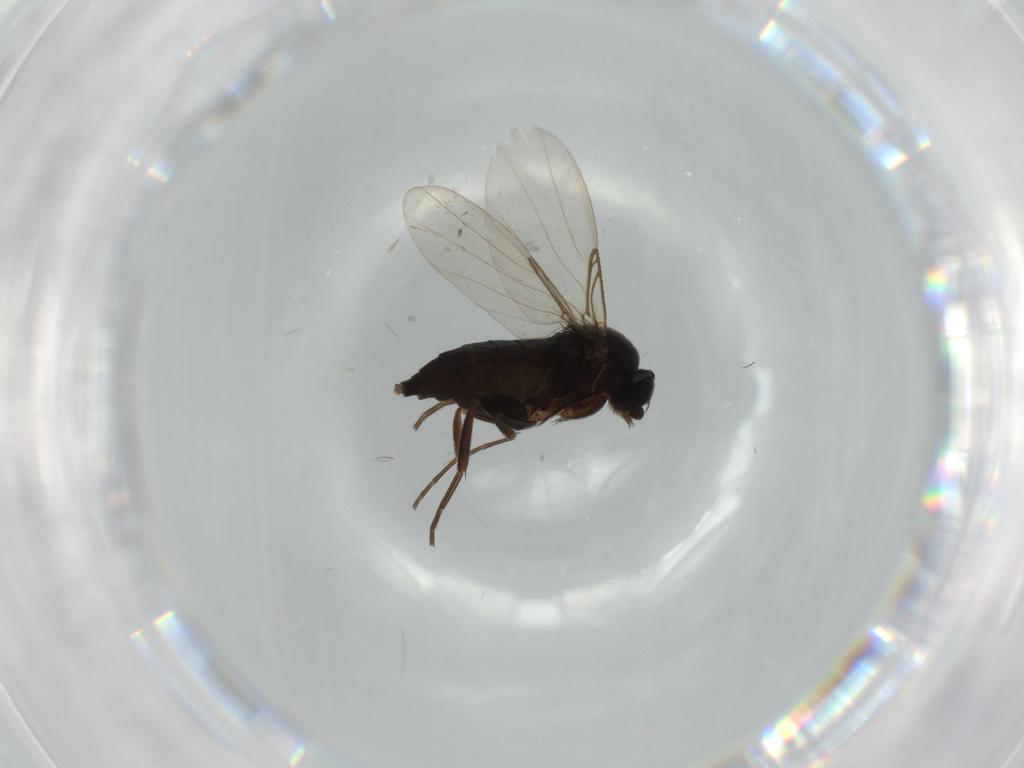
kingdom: Animalia
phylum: Arthropoda
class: Insecta
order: Diptera
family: Phoridae
